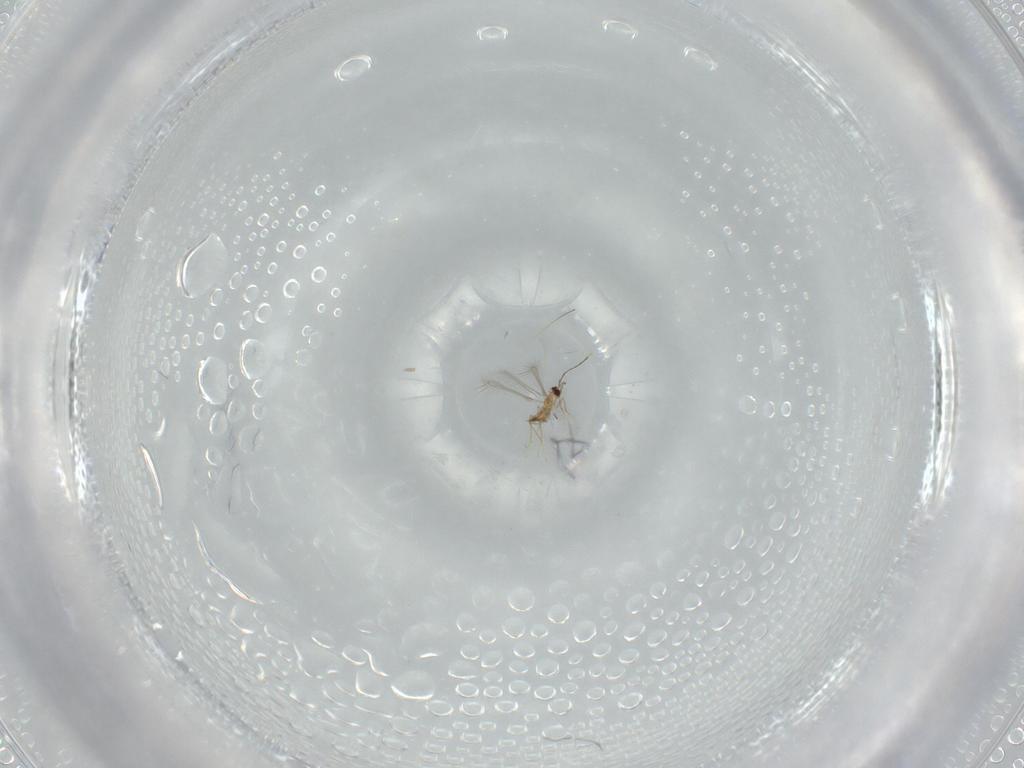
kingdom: Animalia
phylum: Arthropoda
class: Insecta
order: Hymenoptera
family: Mymaridae
